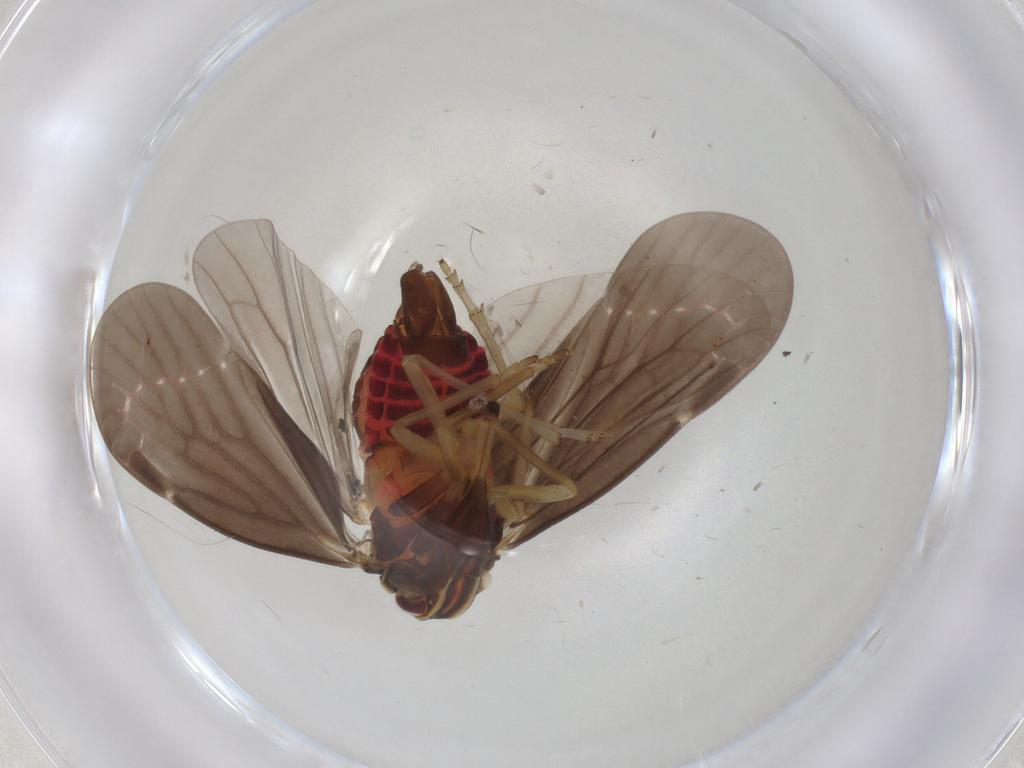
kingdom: Animalia
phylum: Arthropoda
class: Insecta
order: Hemiptera
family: Derbidae
